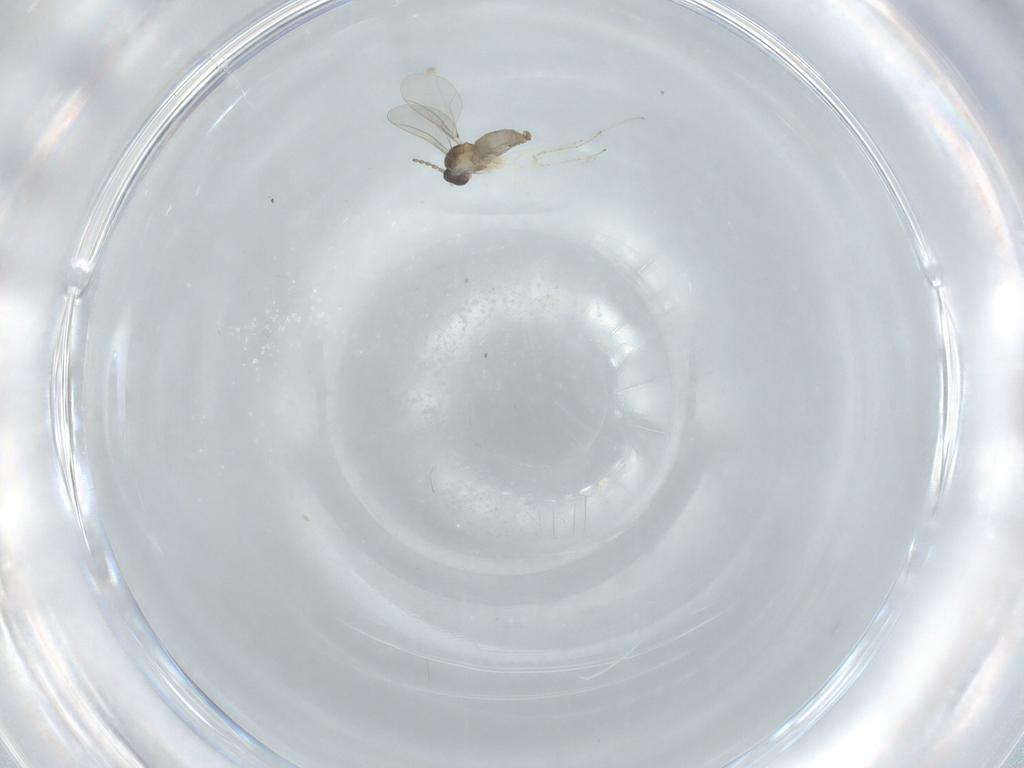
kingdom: Animalia
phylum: Arthropoda
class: Insecta
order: Diptera
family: Cecidomyiidae
